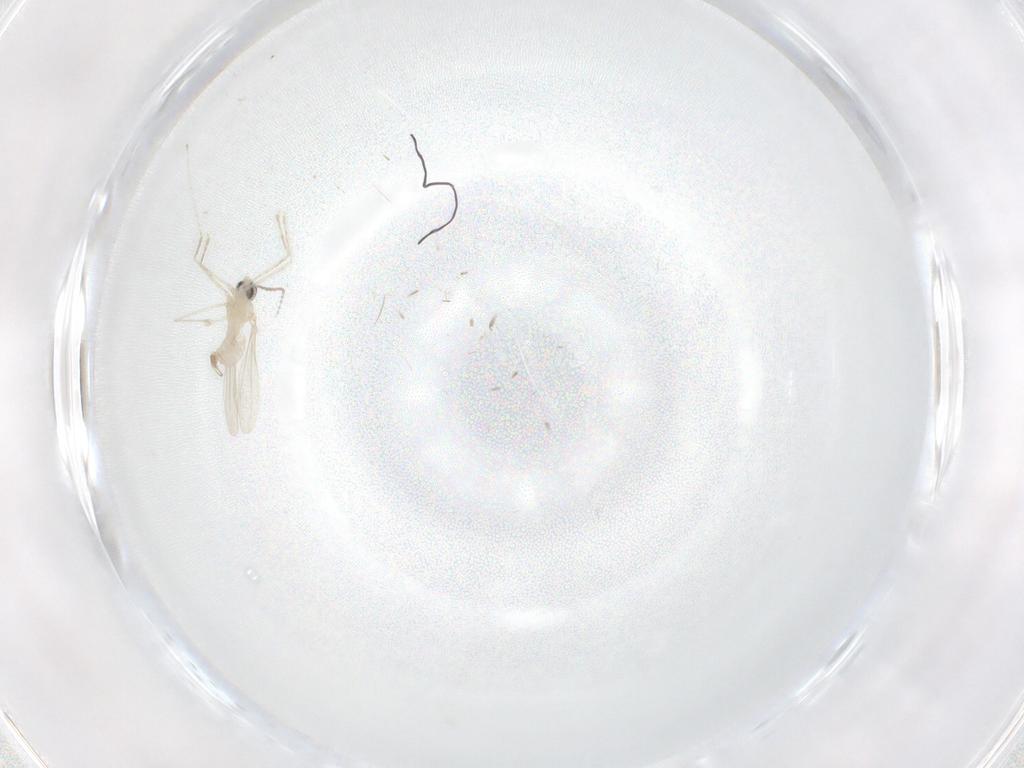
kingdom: Animalia
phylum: Arthropoda
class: Insecta
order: Diptera
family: Chironomidae
